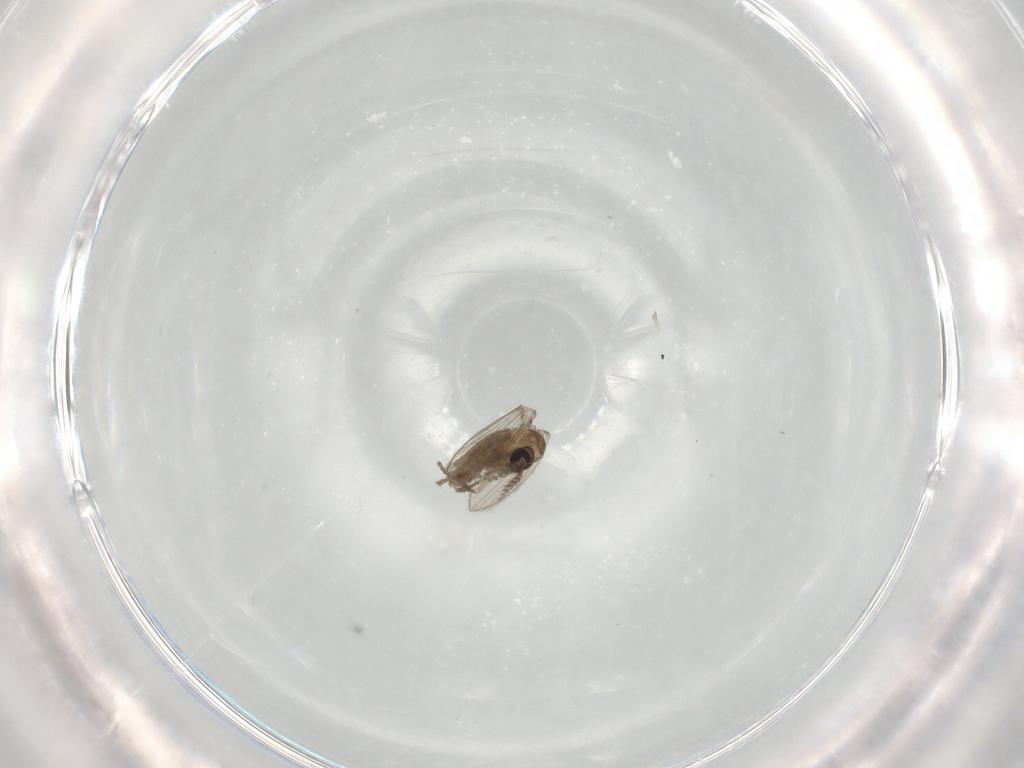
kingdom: Animalia
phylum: Arthropoda
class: Insecta
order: Diptera
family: Psychodidae
